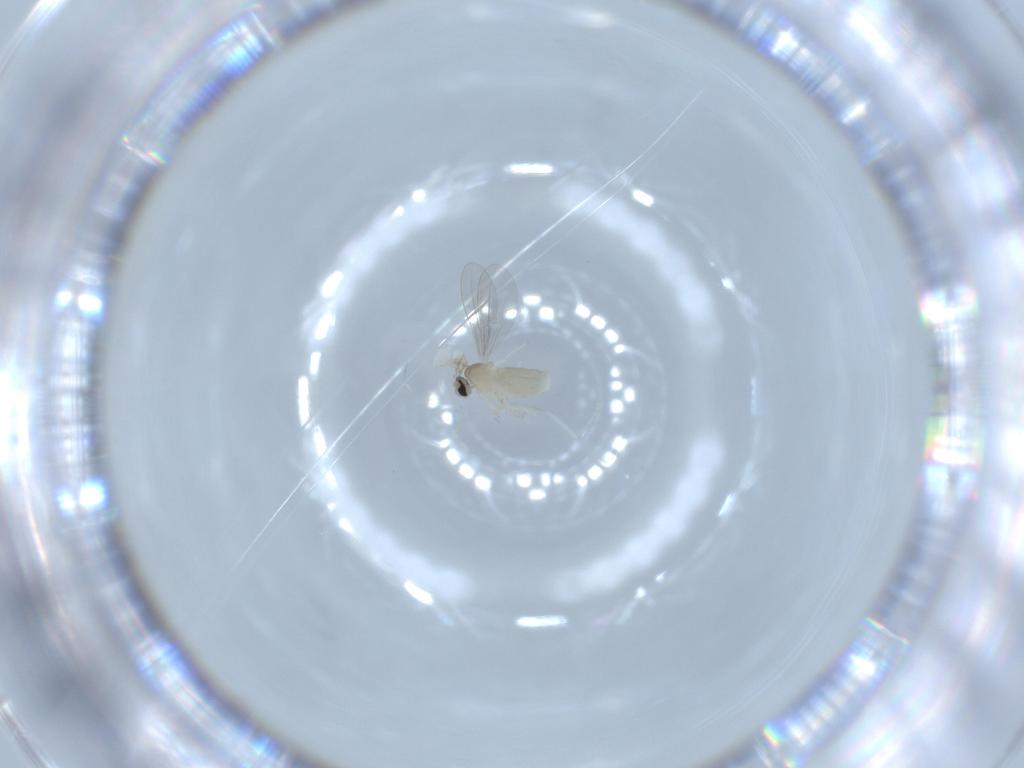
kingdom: Animalia
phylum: Arthropoda
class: Insecta
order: Diptera
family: Cecidomyiidae
